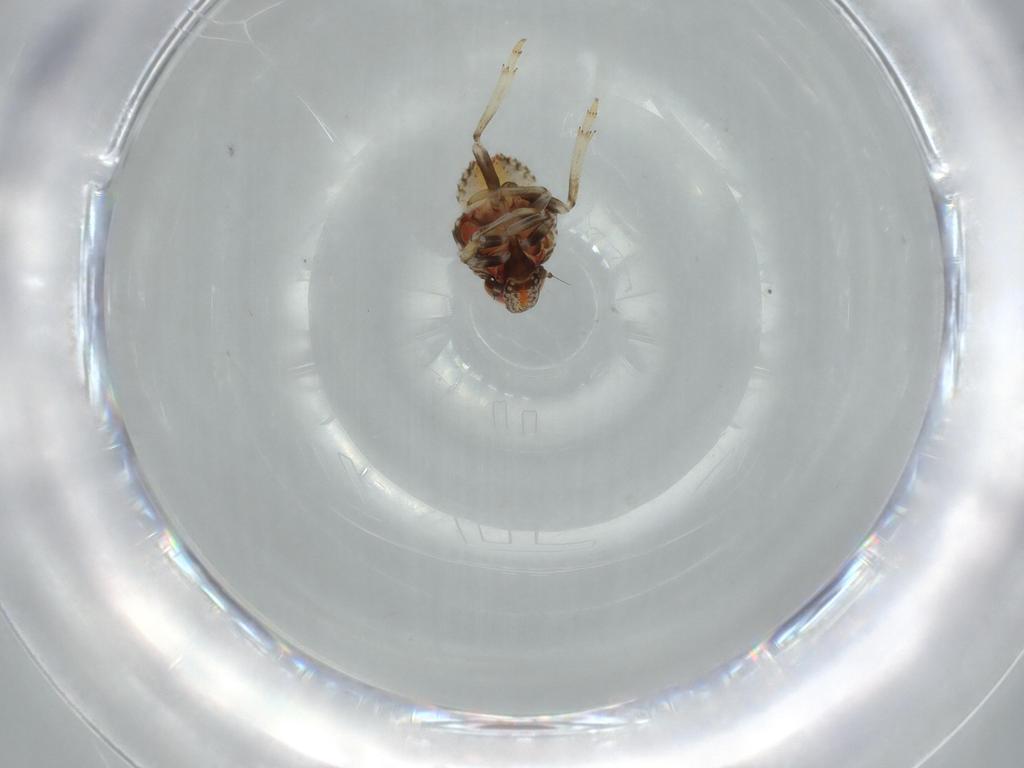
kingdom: Animalia
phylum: Arthropoda
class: Insecta
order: Hemiptera
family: Issidae
